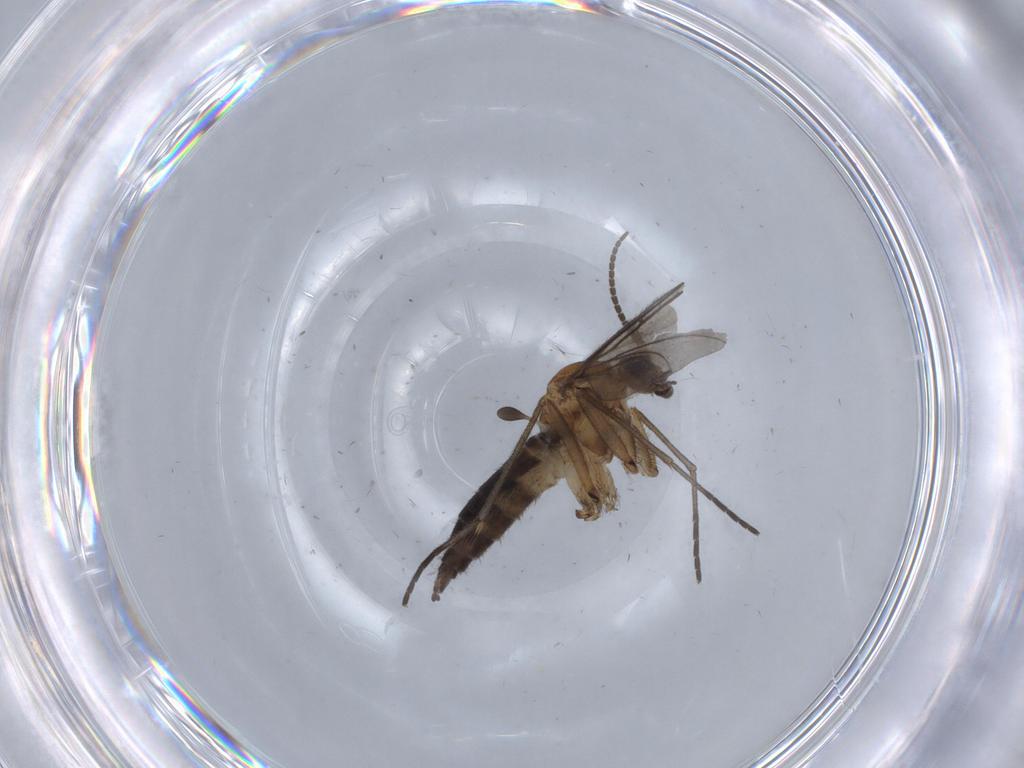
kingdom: Animalia
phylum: Arthropoda
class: Insecta
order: Diptera
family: Sciaridae
